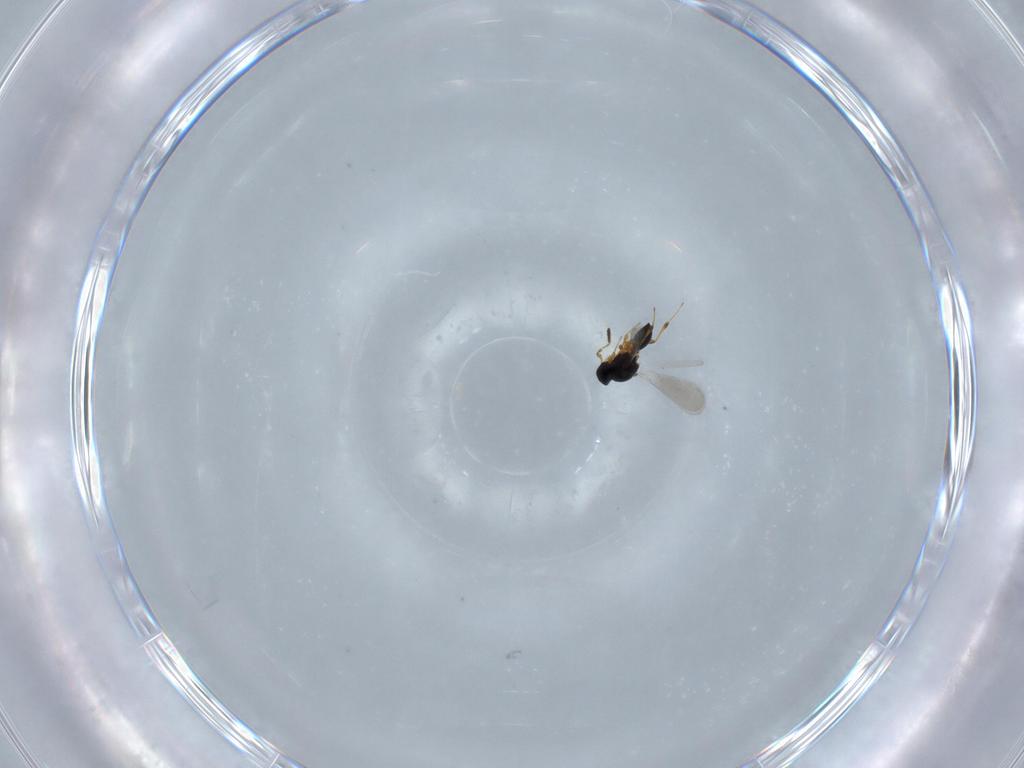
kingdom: Animalia
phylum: Arthropoda
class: Insecta
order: Hymenoptera
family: Platygastridae
